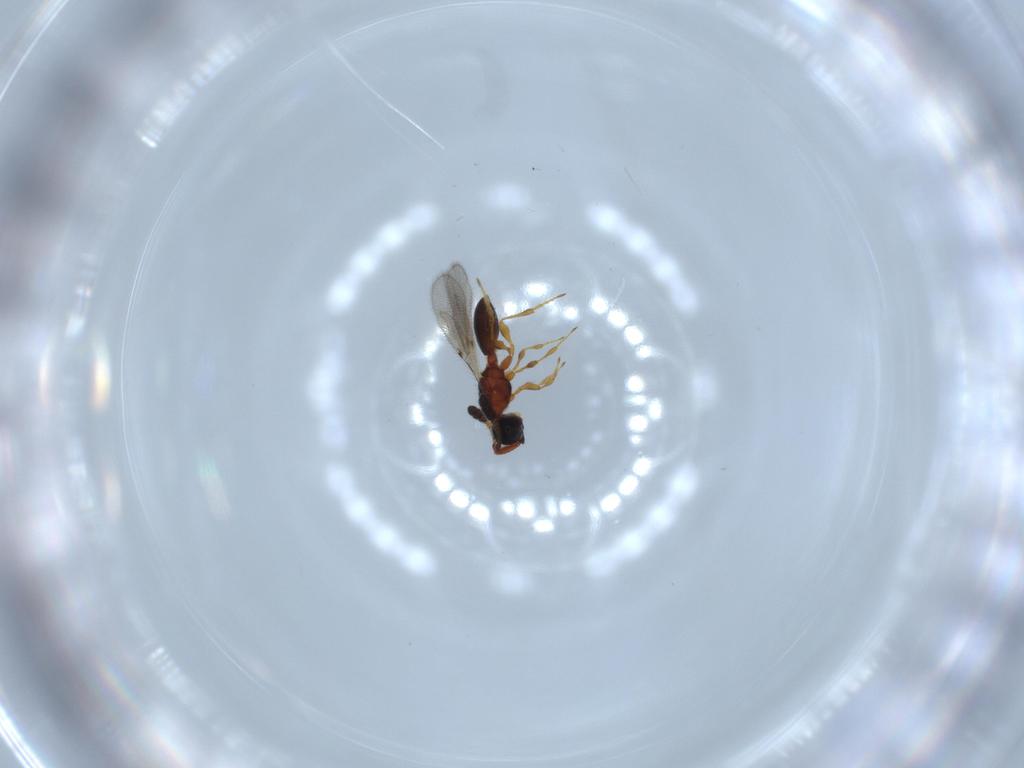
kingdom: Animalia
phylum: Arthropoda
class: Insecta
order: Hymenoptera
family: Diapriidae
